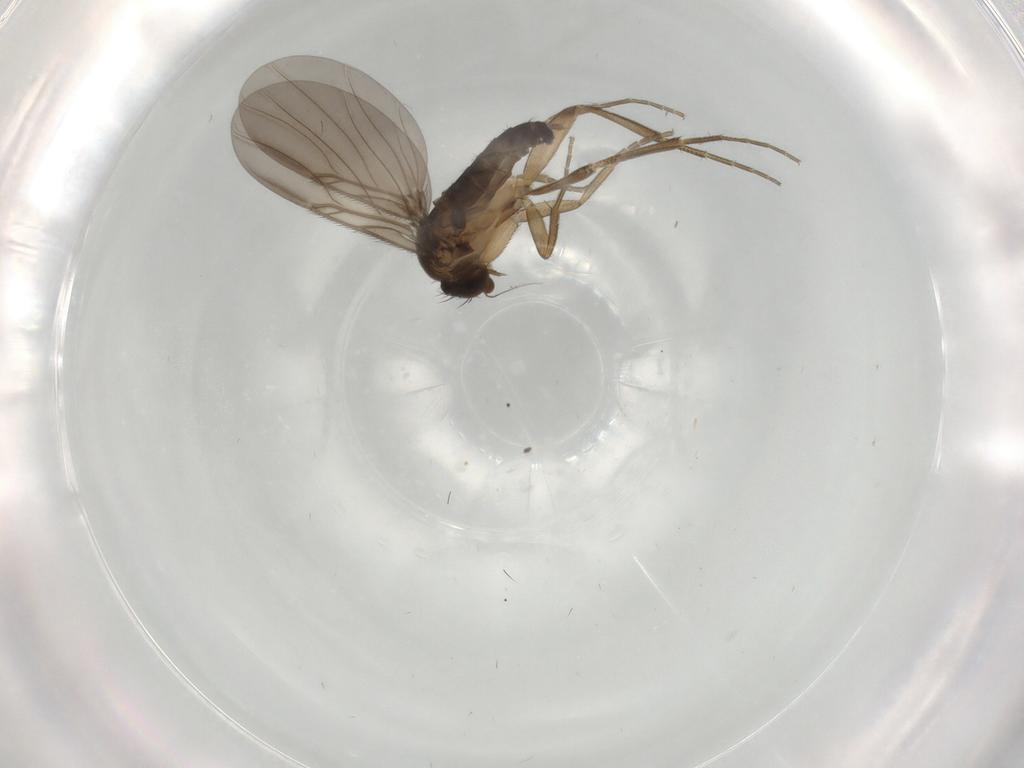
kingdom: Animalia
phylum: Arthropoda
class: Insecta
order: Diptera
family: Phoridae
